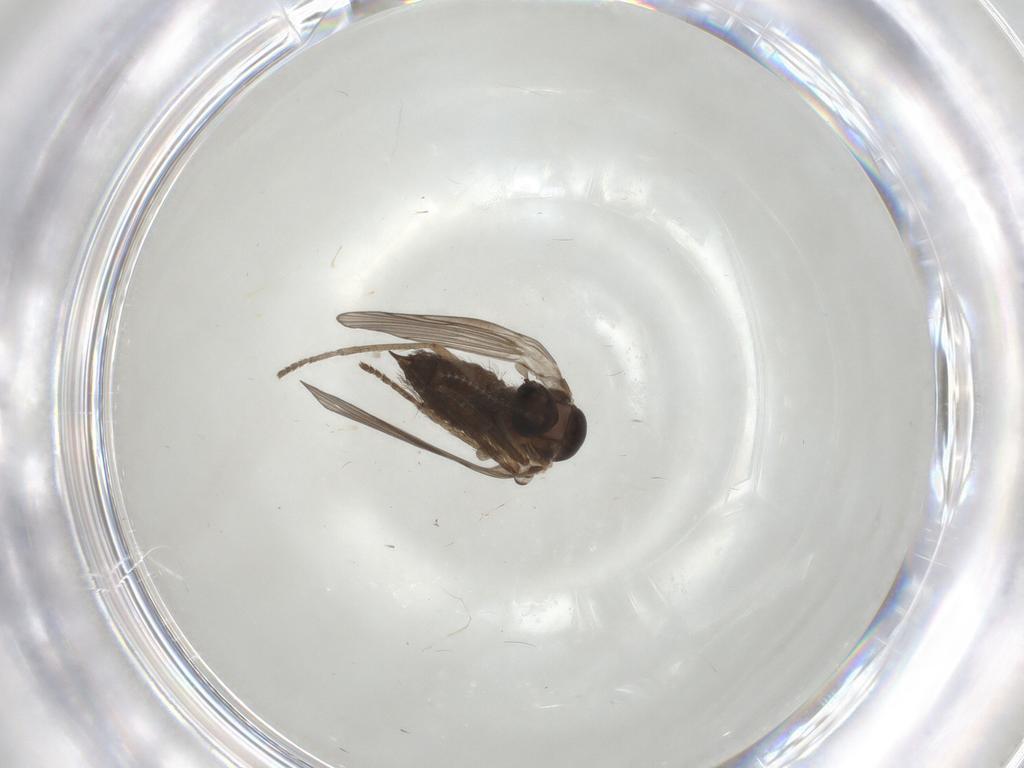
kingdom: Animalia
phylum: Arthropoda
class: Insecta
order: Diptera
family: Psychodidae
